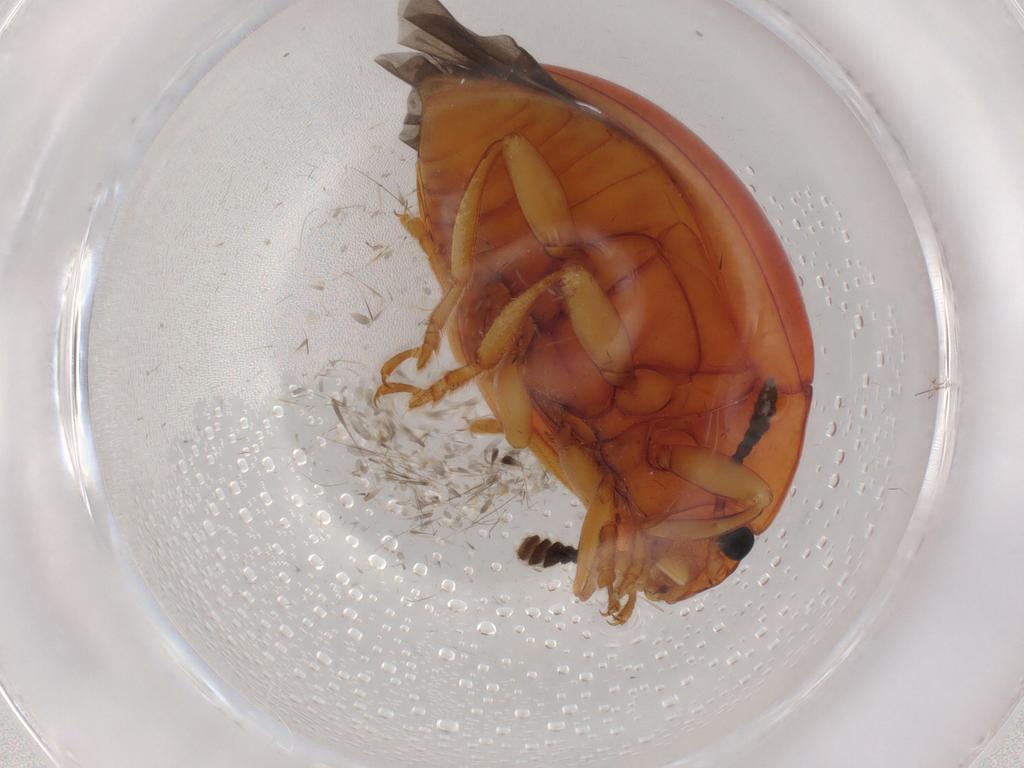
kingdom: Animalia
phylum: Arthropoda
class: Insecta
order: Coleoptera
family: Erotylidae
